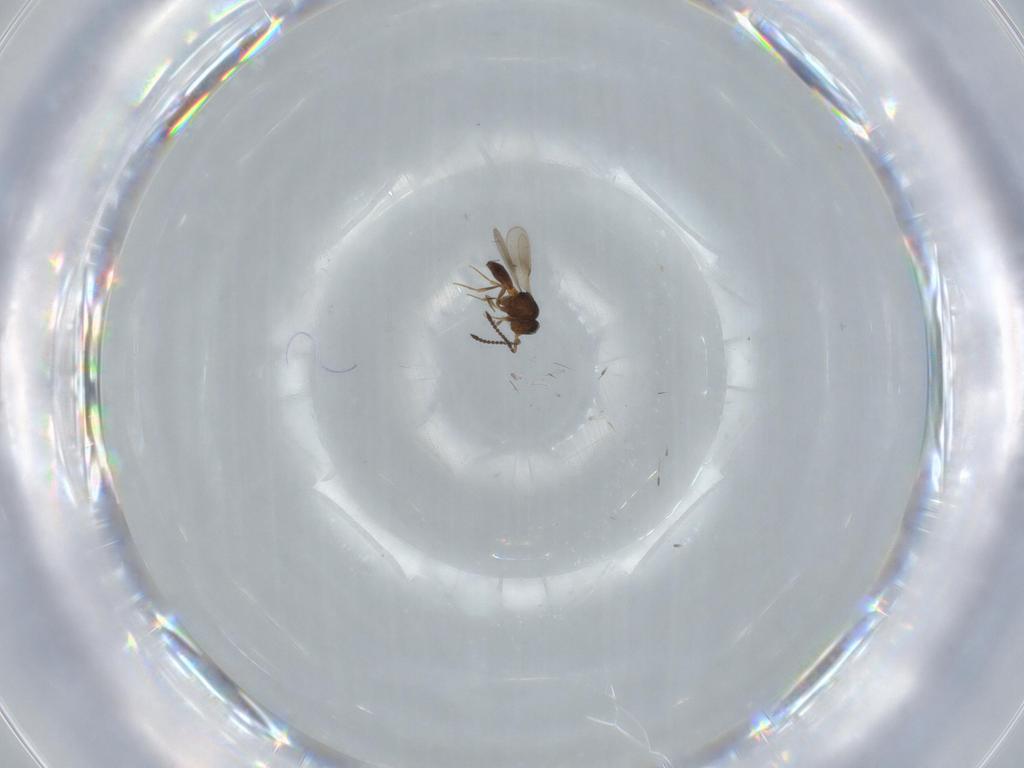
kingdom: Animalia
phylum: Arthropoda
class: Insecta
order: Hymenoptera
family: Scelionidae
